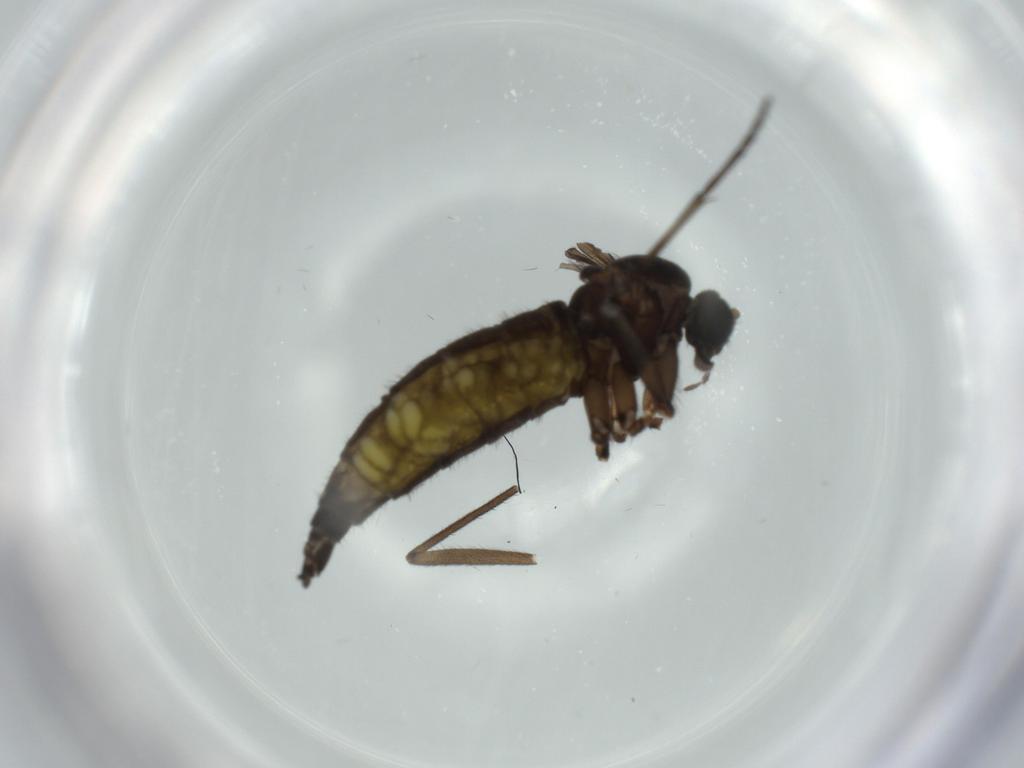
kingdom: Animalia
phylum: Arthropoda
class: Insecta
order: Diptera
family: Sciaridae
